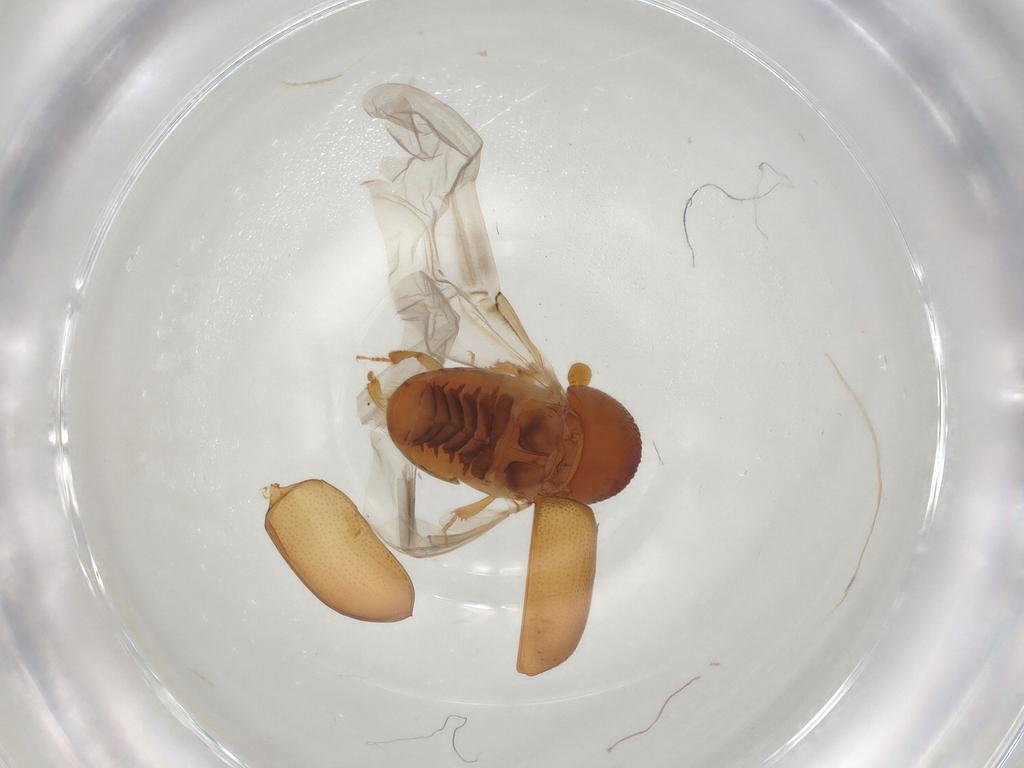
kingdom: Animalia
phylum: Arthropoda
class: Insecta
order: Coleoptera
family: Curculionidae
